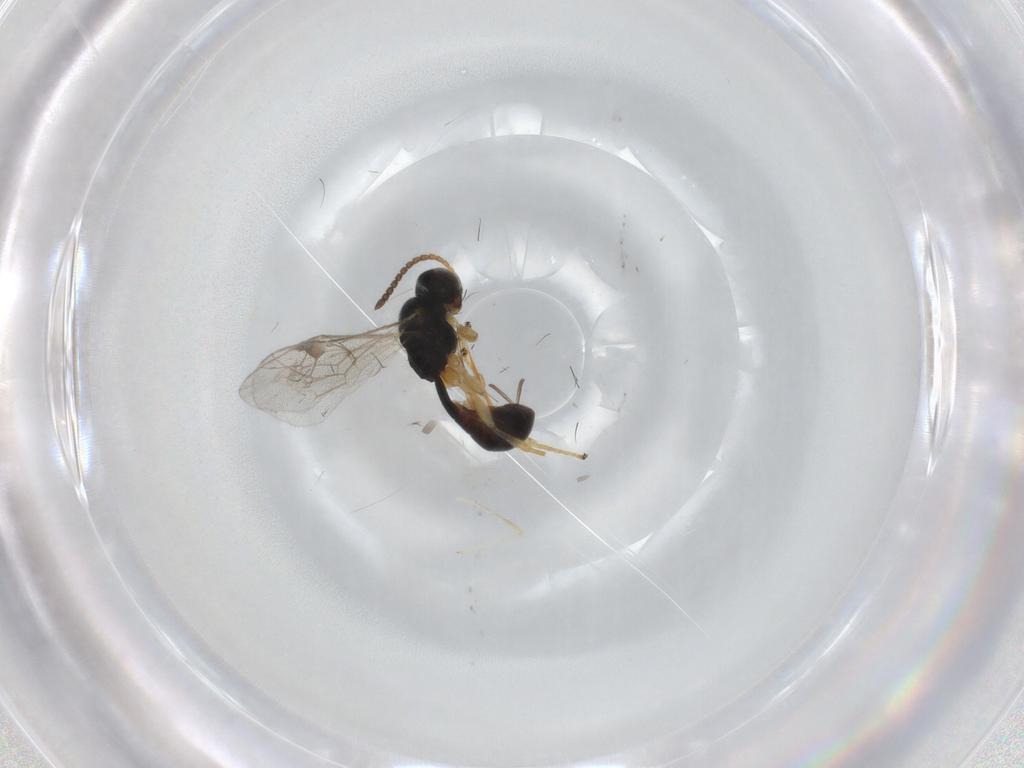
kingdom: Animalia
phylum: Arthropoda
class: Insecta
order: Hymenoptera
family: Ichneumonidae
